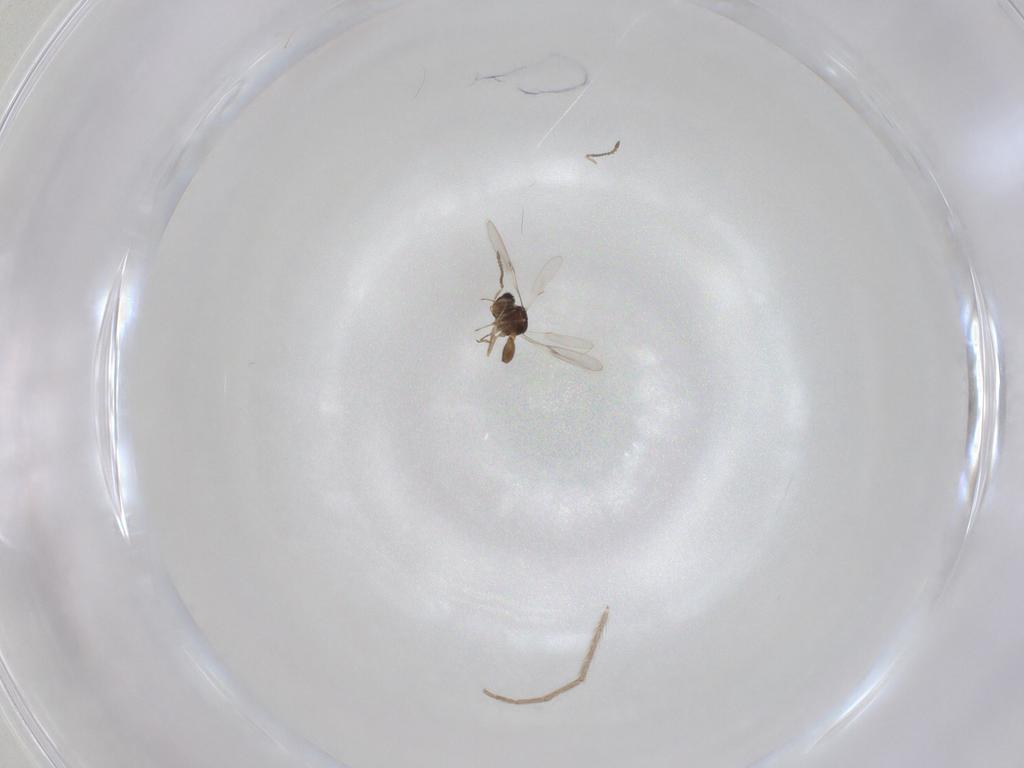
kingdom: Animalia
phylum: Arthropoda
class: Insecta
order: Hymenoptera
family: Scelionidae
